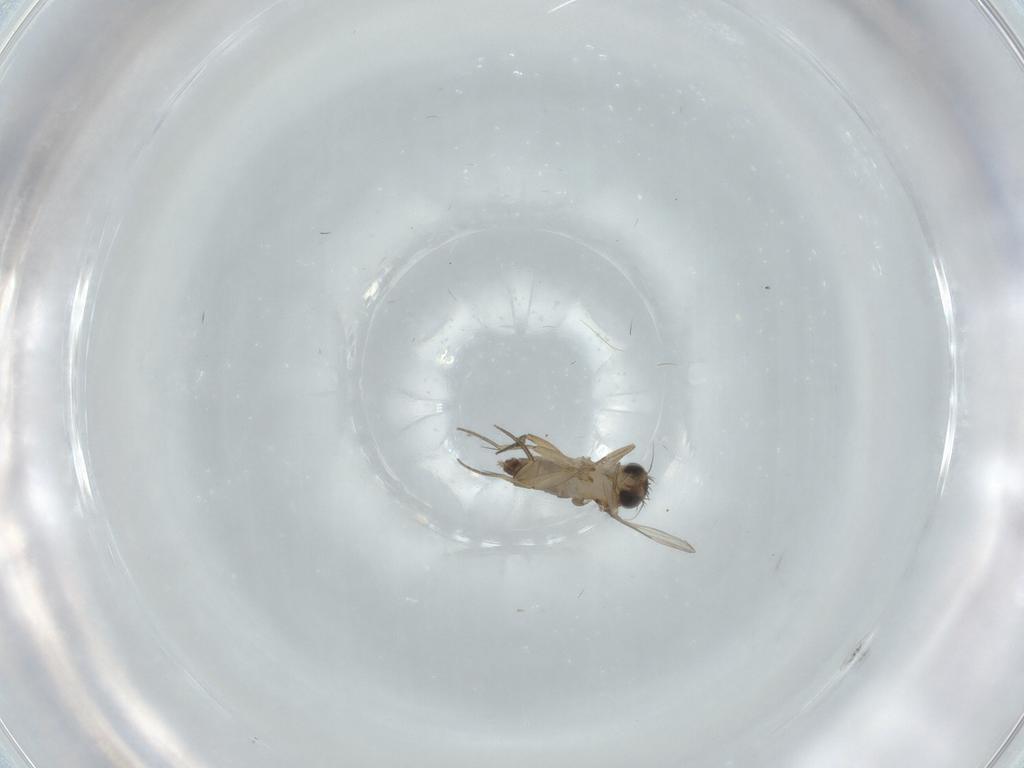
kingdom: Animalia
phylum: Arthropoda
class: Insecta
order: Diptera
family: Phoridae
